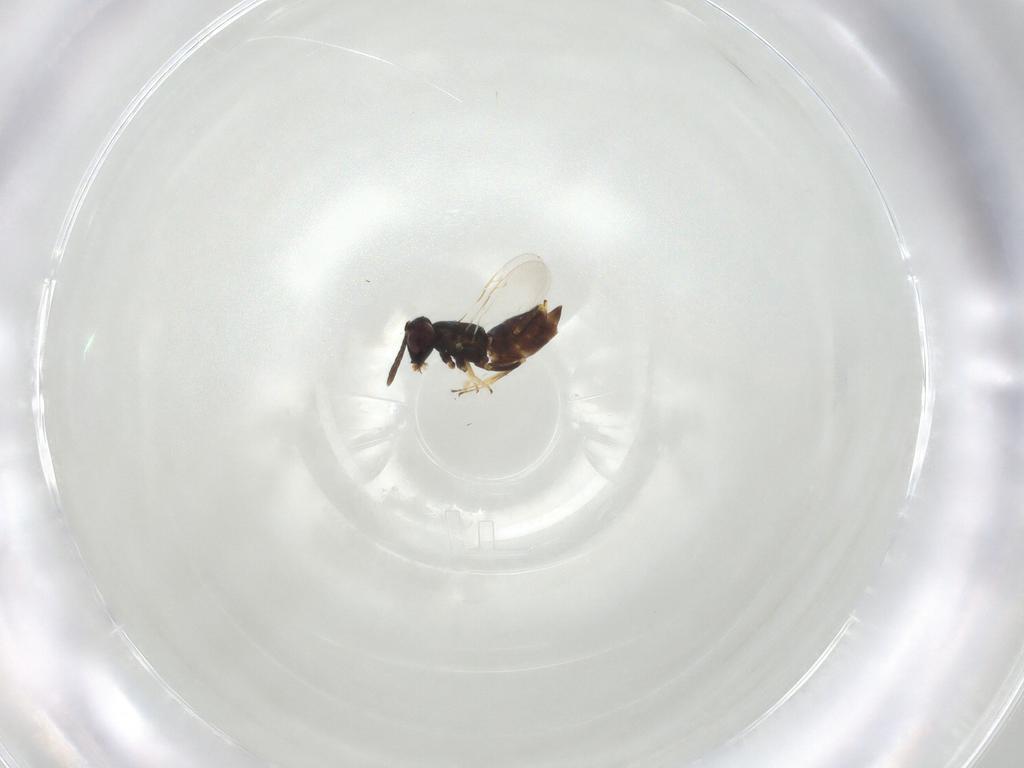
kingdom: Animalia
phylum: Arthropoda
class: Insecta
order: Hymenoptera
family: Encyrtidae
